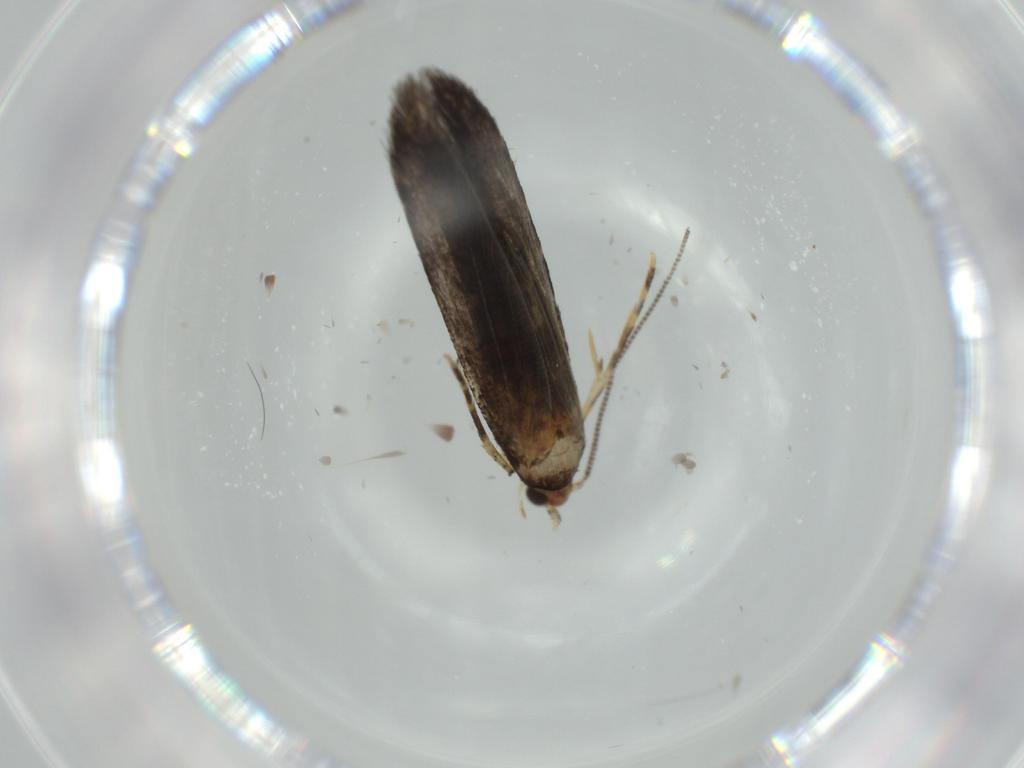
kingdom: Animalia
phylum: Arthropoda
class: Insecta
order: Lepidoptera
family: Tineidae
